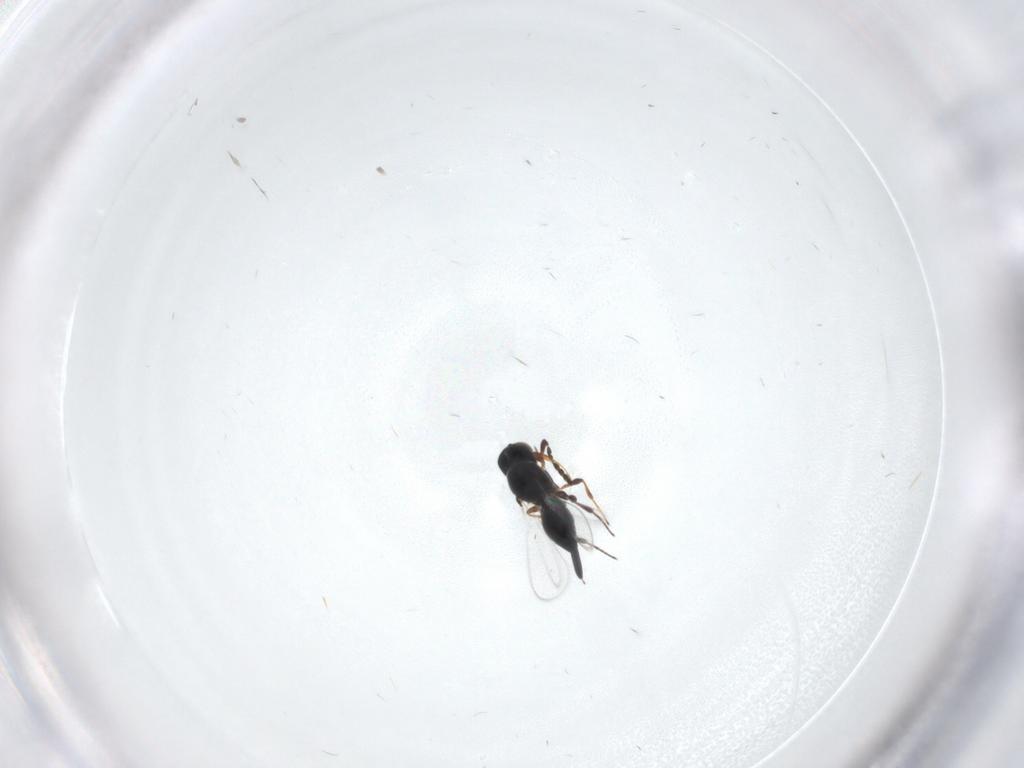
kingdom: Animalia
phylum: Arthropoda
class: Insecta
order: Hymenoptera
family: Platygastridae
